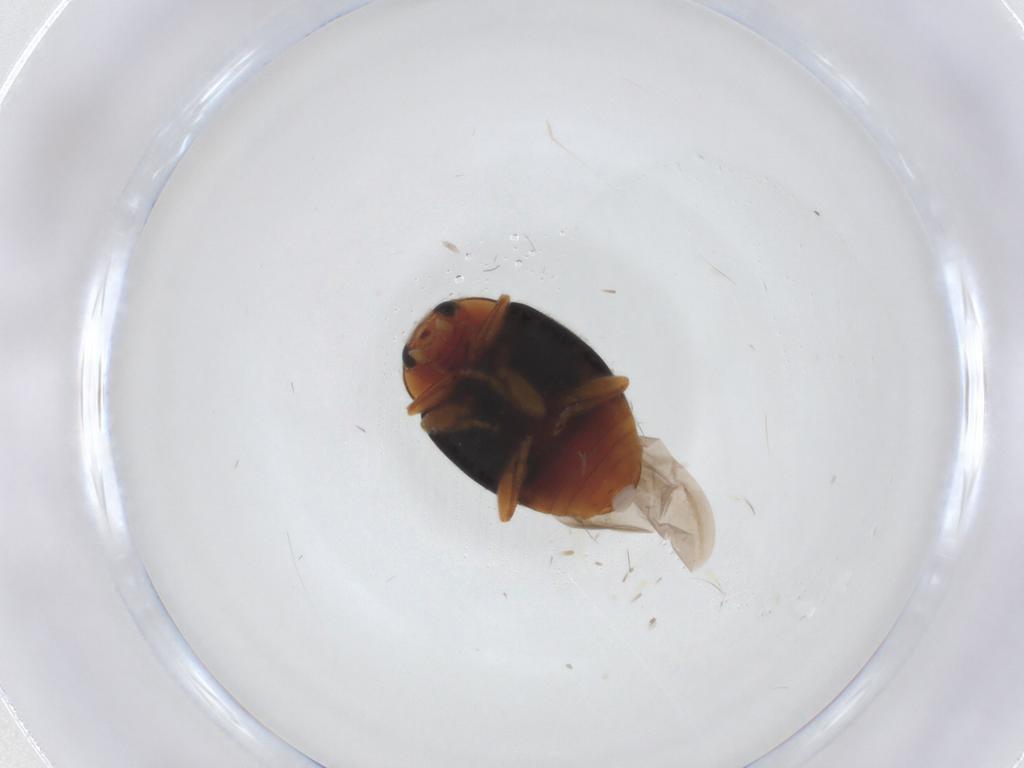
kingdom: Animalia
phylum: Arthropoda
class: Insecta
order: Coleoptera
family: Coccinellidae
